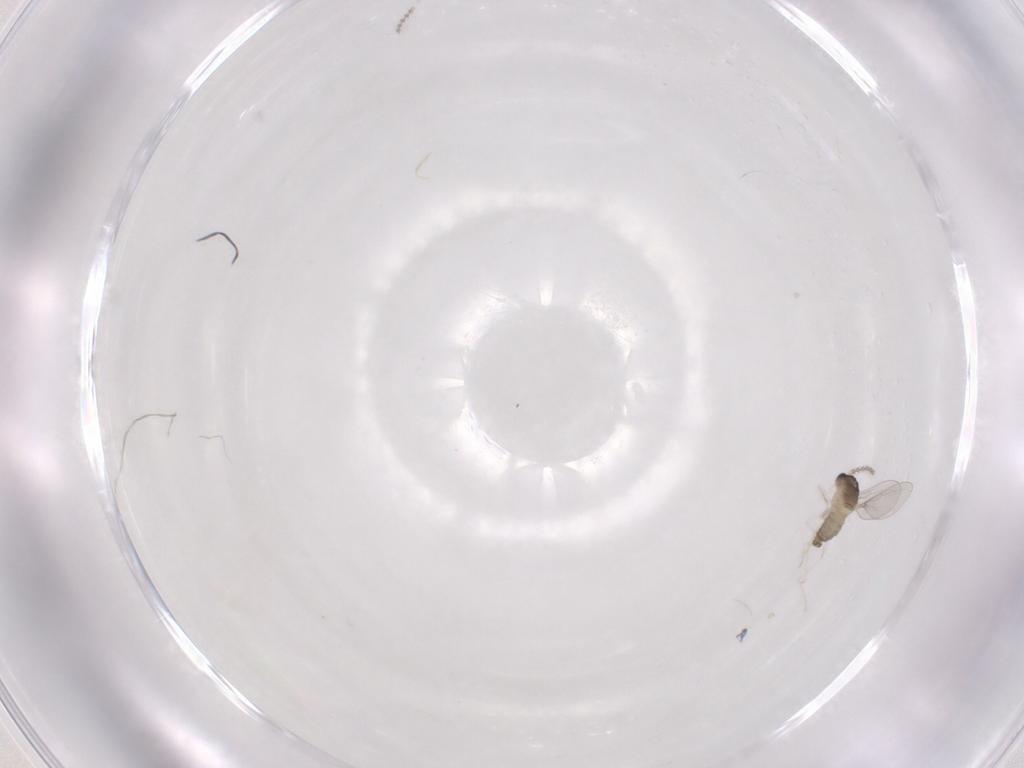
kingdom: Animalia
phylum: Arthropoda
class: Insecta
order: Diptera
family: Cecidomyiidae
